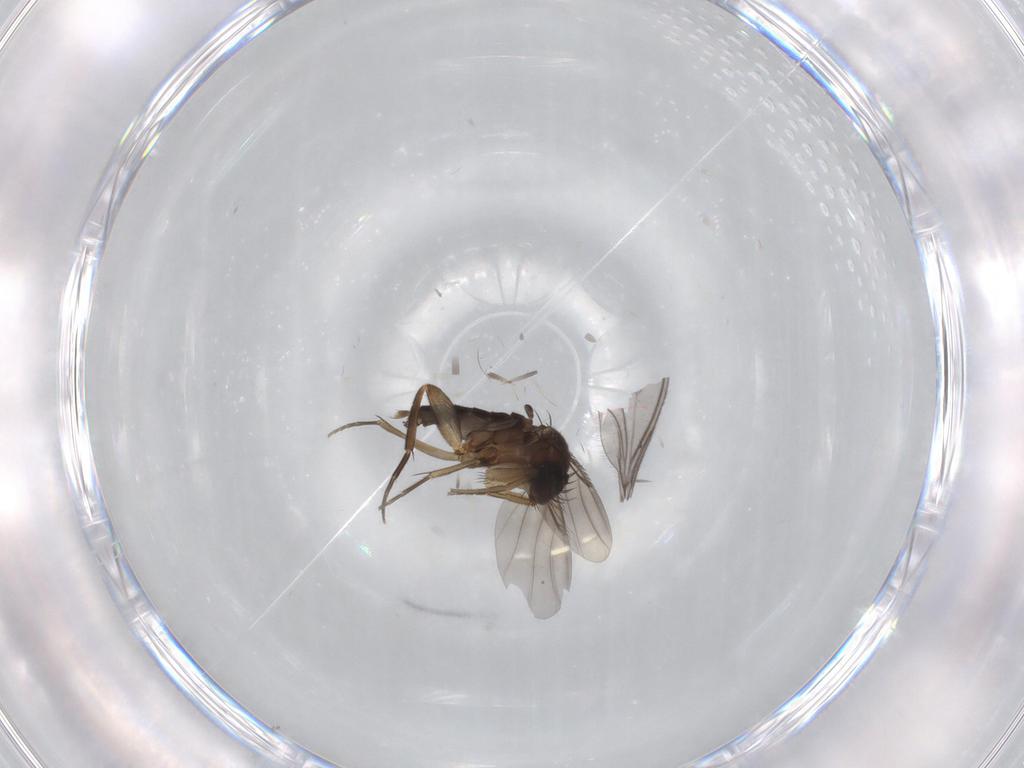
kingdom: Animalia
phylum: Arthropoda
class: Insecta
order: Diptera
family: Phoridae
